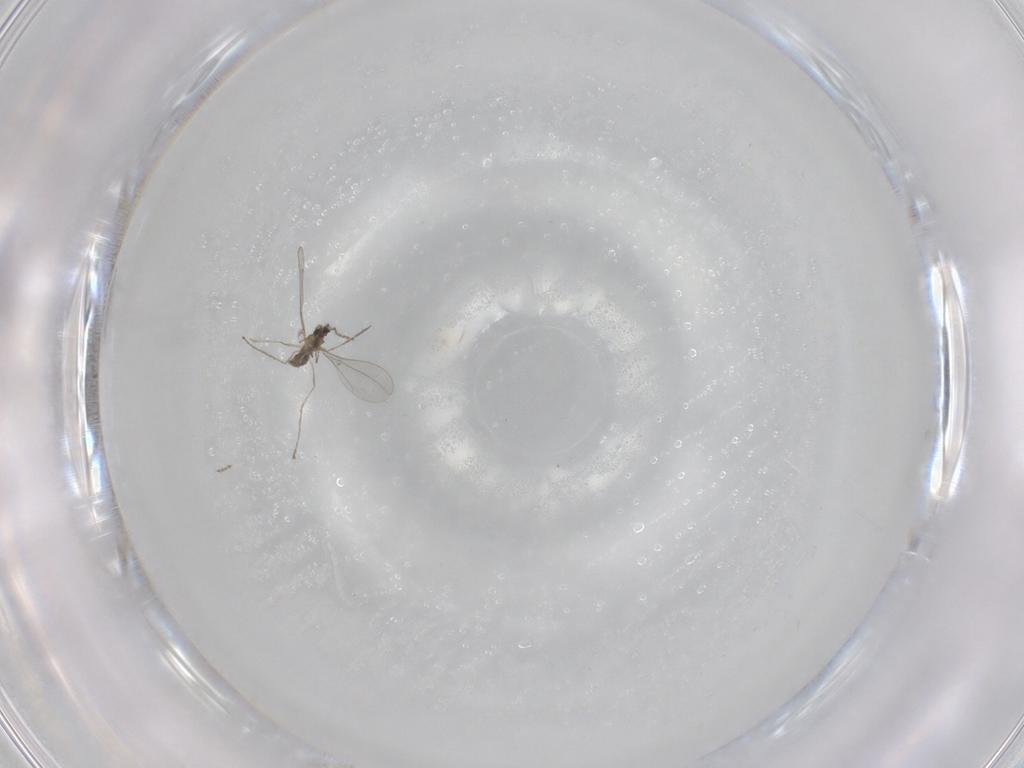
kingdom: Animalia
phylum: Arthropoda
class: Insecta
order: Diptera
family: Cecidomyiidae
